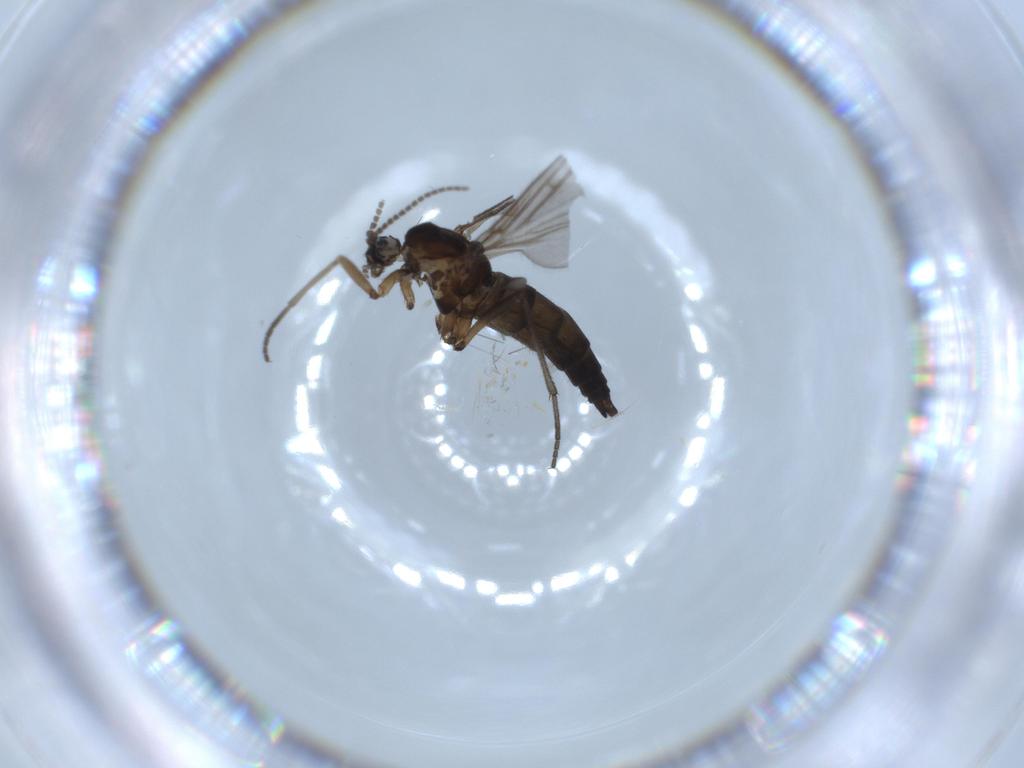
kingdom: Animalia
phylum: Arthropoda
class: Insecta
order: Diptera
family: Sciaridae
